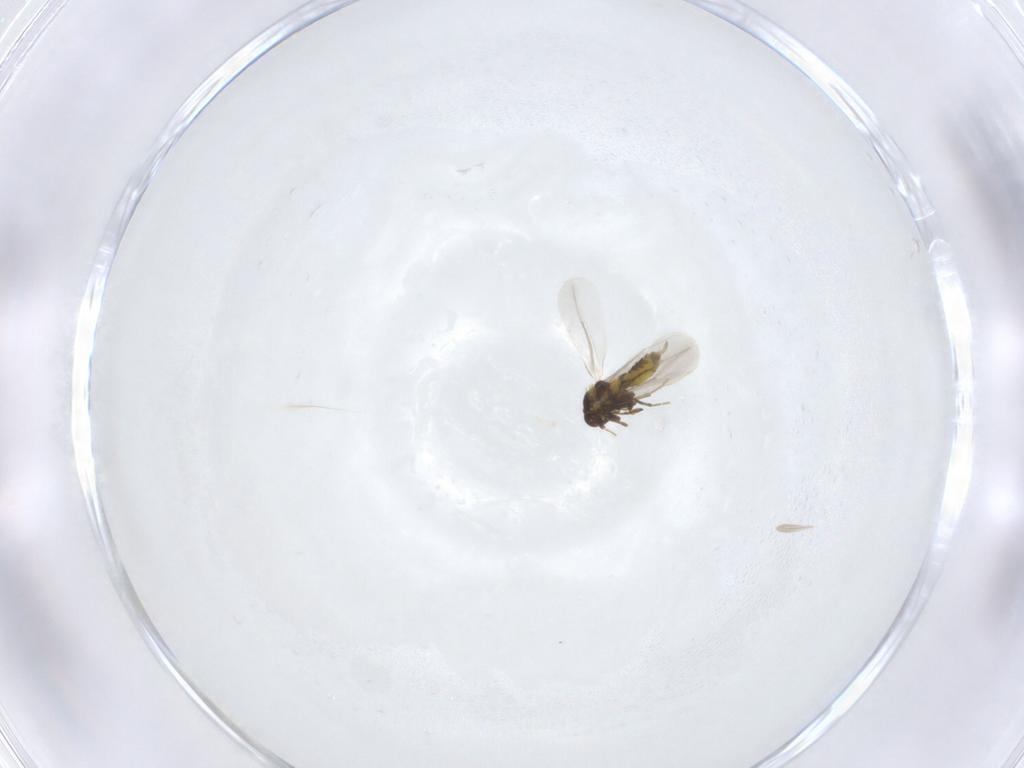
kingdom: Animalia
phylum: Arthropoda
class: Insecta
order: Hemiptera
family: Aleyrodidae
